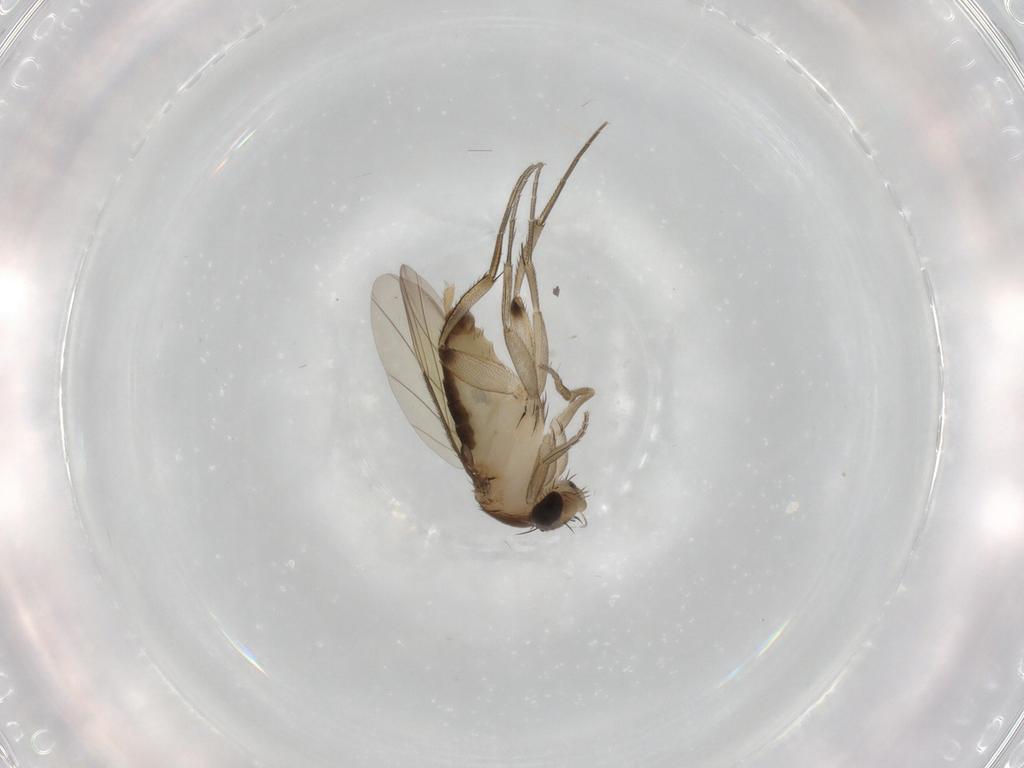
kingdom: Animalia
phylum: Arthropoda
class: Insecta
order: Diptera
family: Phoridae
